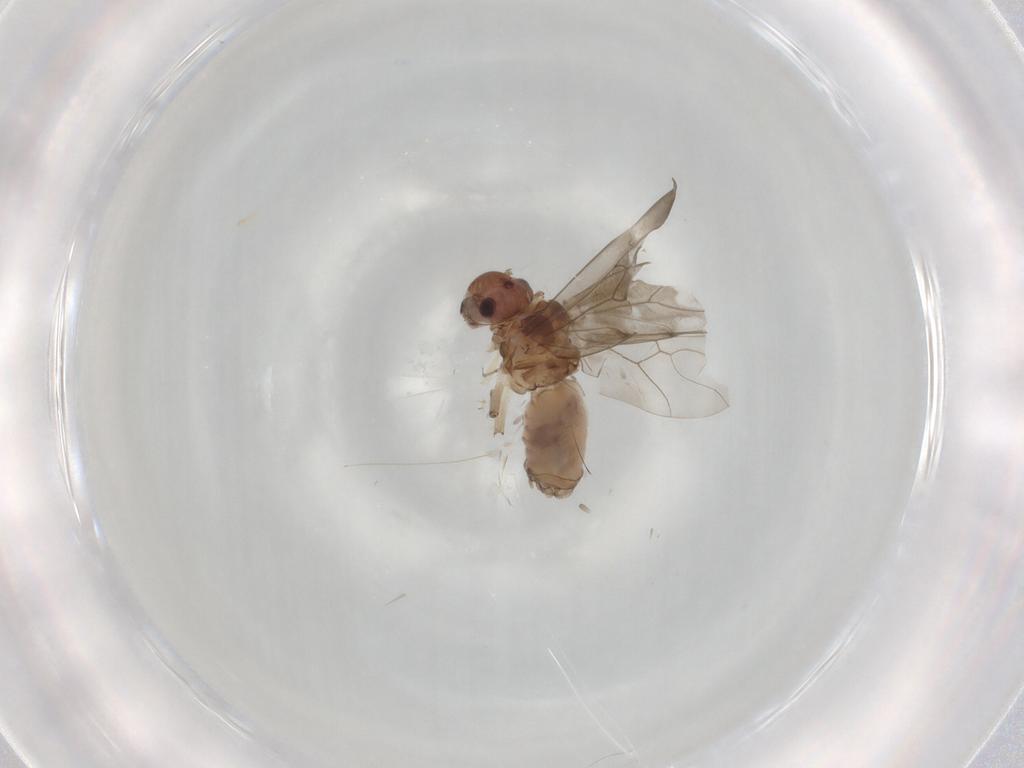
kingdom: Animalia
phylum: Arthropoda
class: Insecta
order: Psocodea
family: Peripsocidae
